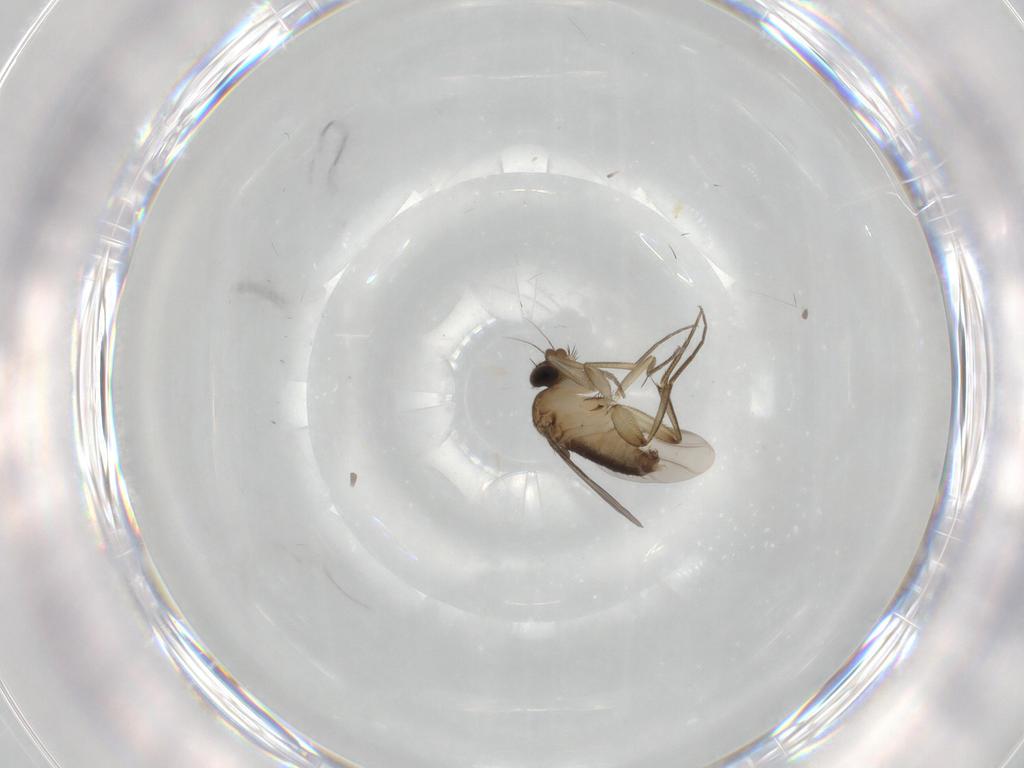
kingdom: Animalia
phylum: Arthropoda
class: Insecta
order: Diptera
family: Phoridae
